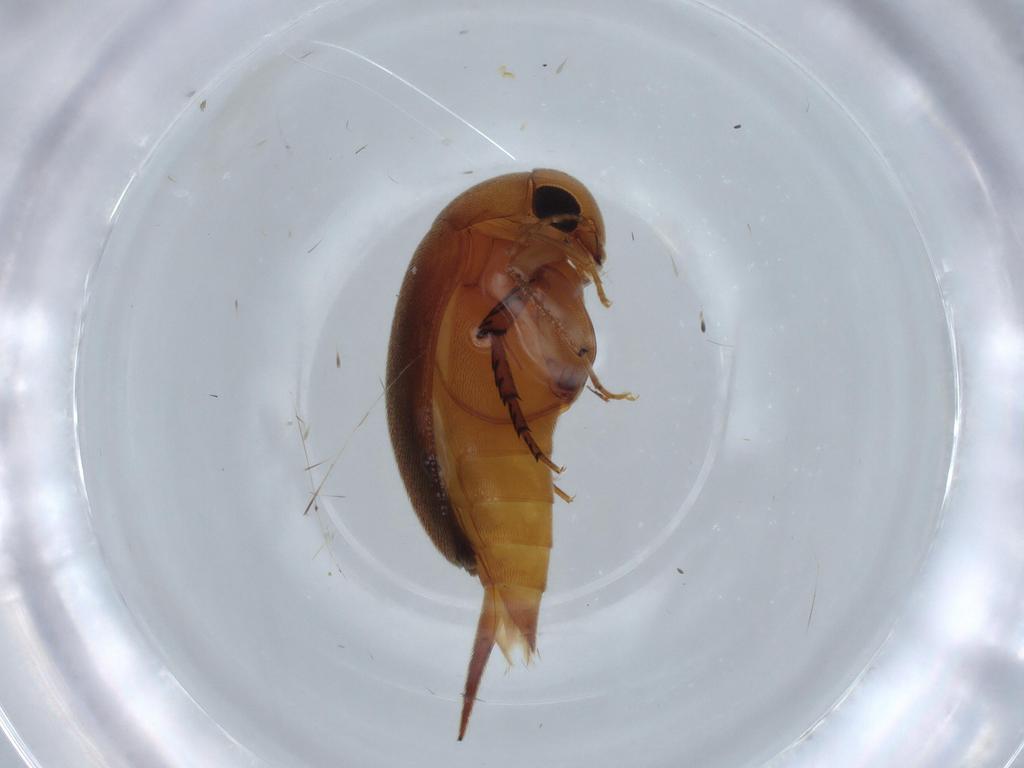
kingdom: Animalia
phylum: Arthropoda
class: Insecta
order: Coleoptera
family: Mordellidae
